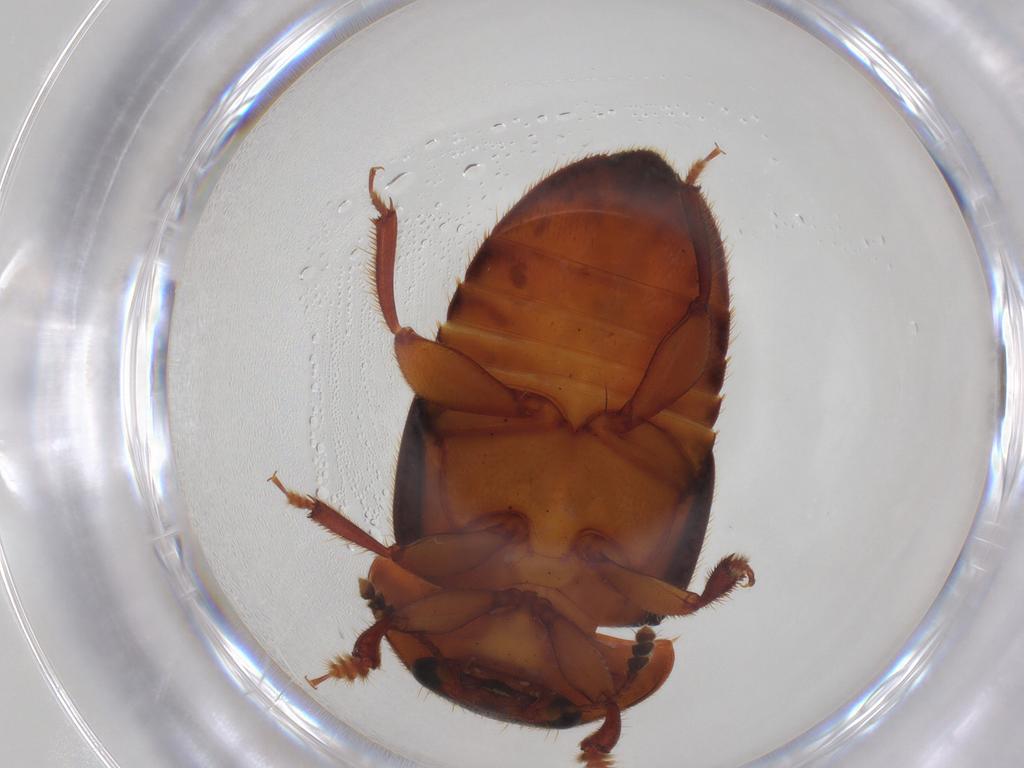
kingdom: Animalia
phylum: Arthropoda
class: Insecta
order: Coleoptera
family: Nitidulidae
